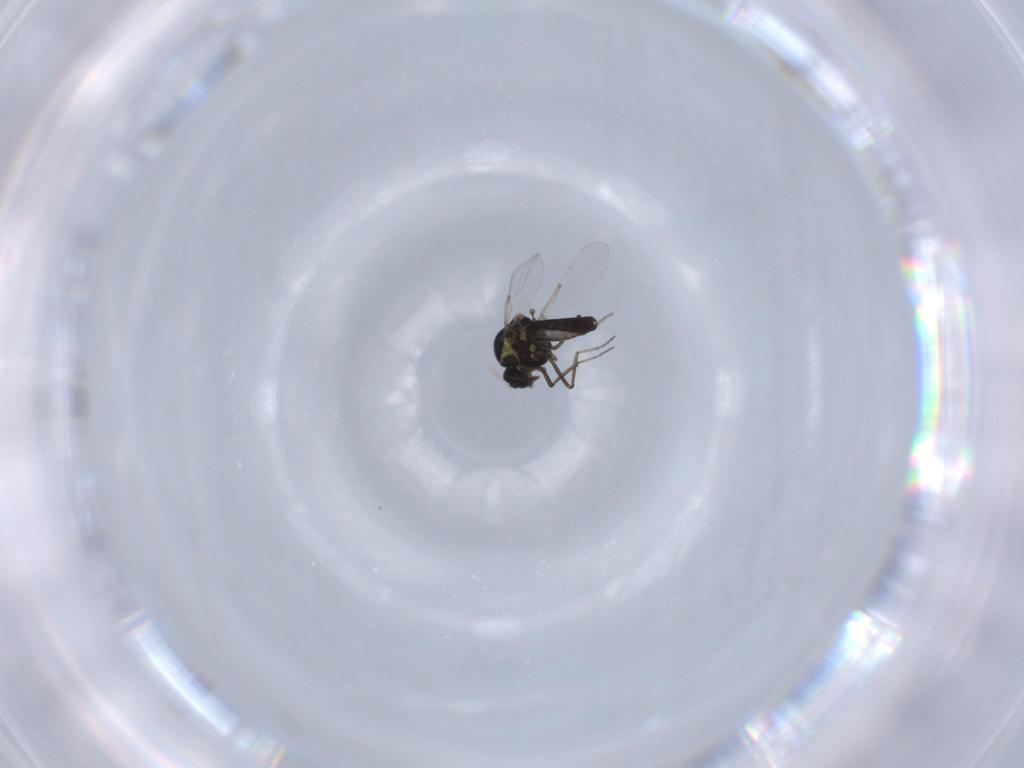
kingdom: Animalia
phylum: Arthropoda
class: Insecta
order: Diptera
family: Ceratopogonidae
